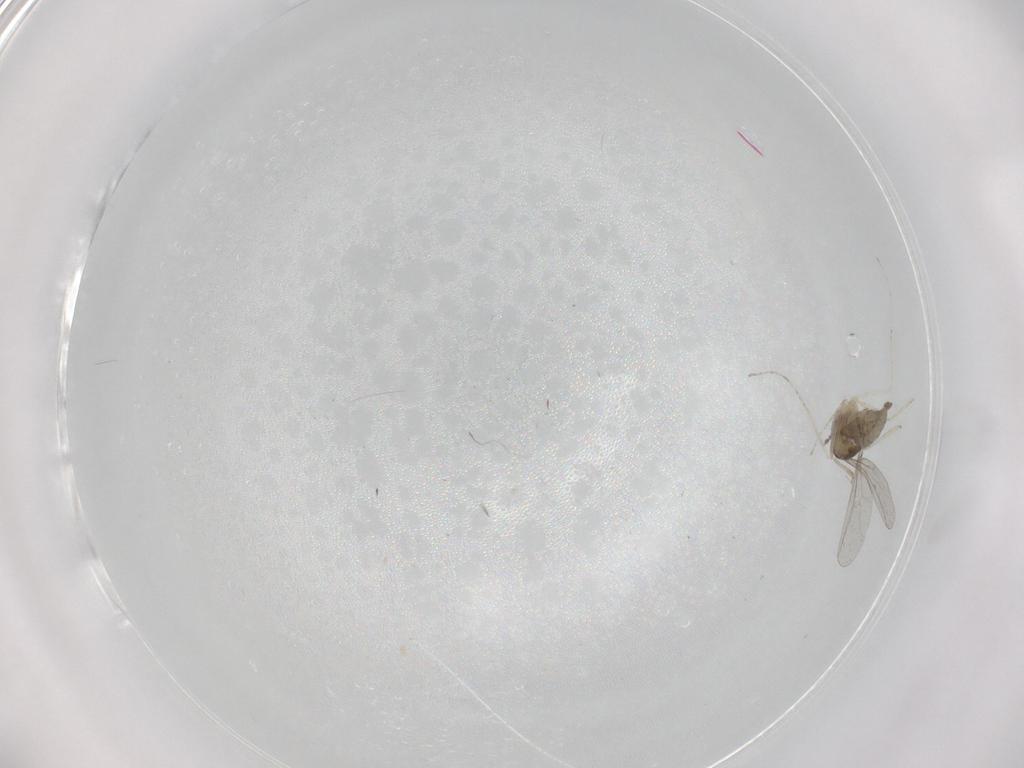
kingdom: Animalia
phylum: Arthropoda
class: Insecta
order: Diptera
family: Cecidomyiidae
